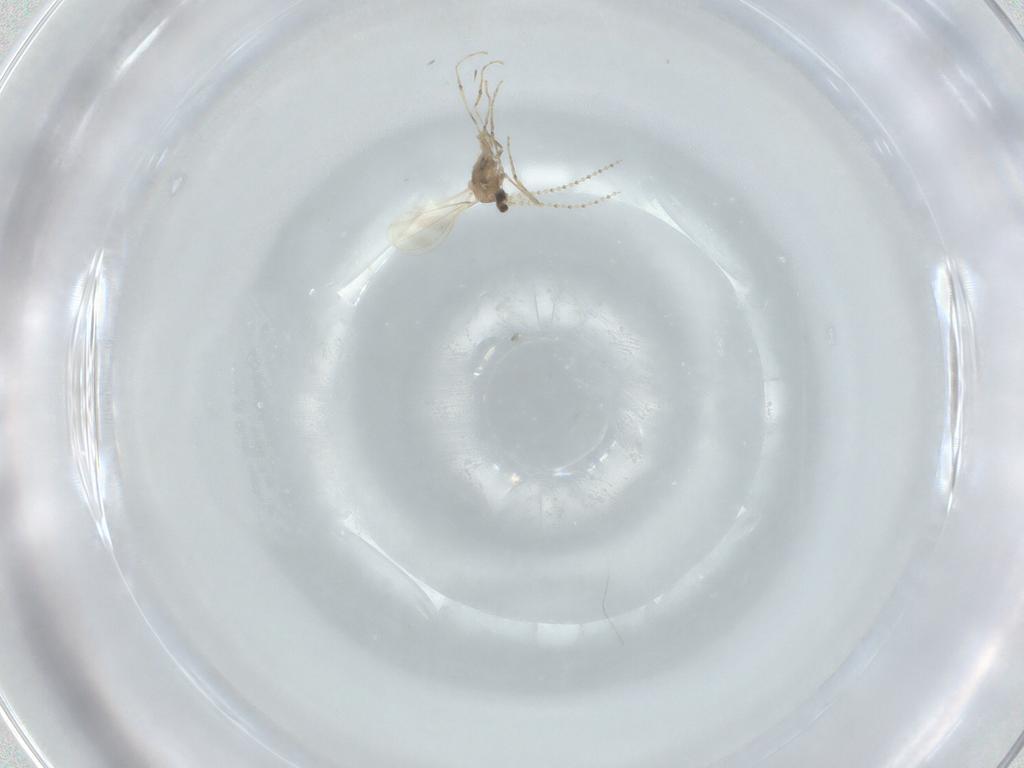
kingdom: Animalia
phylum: Arthropoda
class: Insecta
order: Diptera
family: Cecidomyiidae
